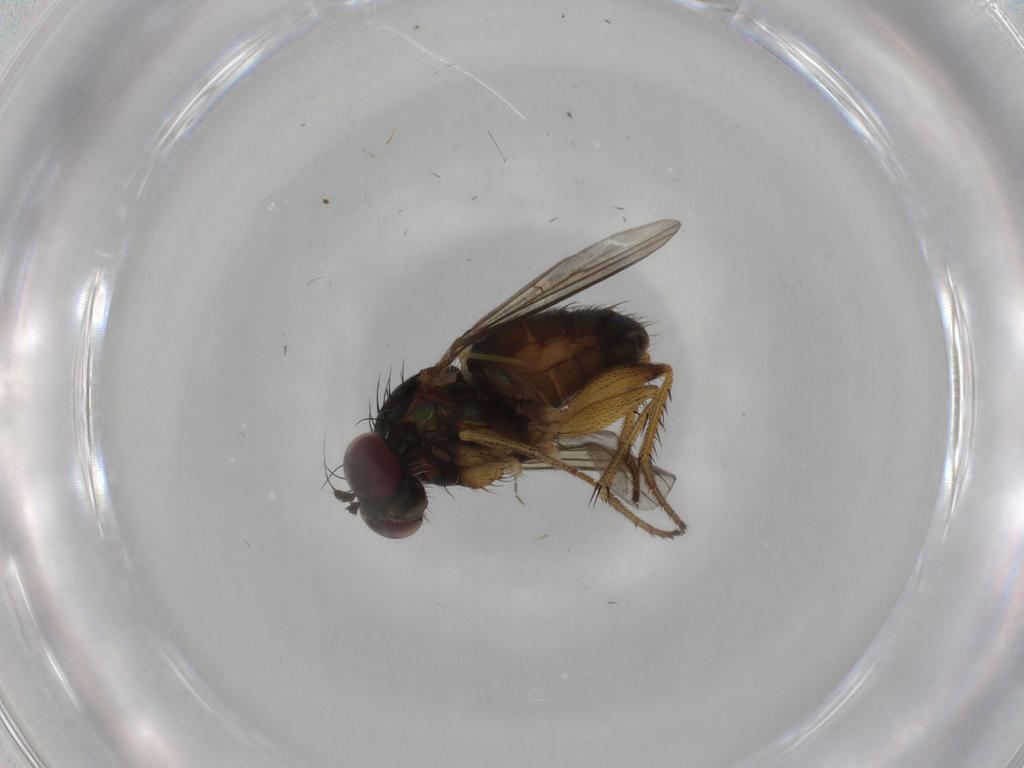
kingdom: Animalia
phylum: Arthropoda
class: Insecta
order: Diptera
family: Dolichopodidae
